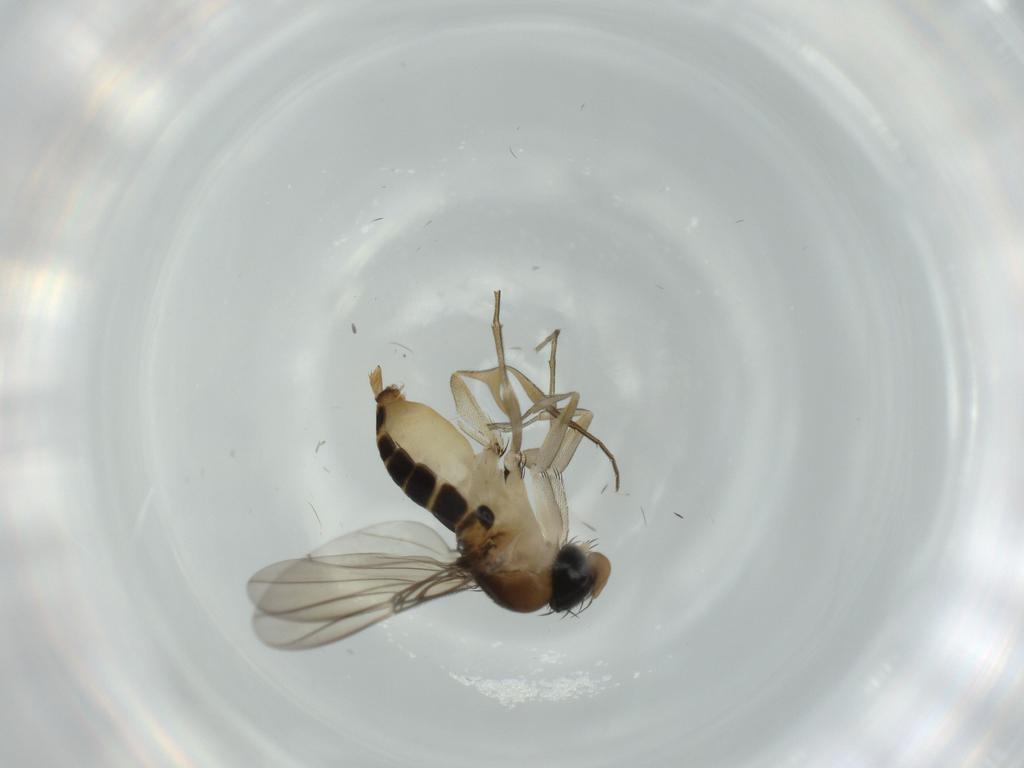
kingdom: Animalia
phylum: Arthropoda
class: Insecta
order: Diptera
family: Phoridae
